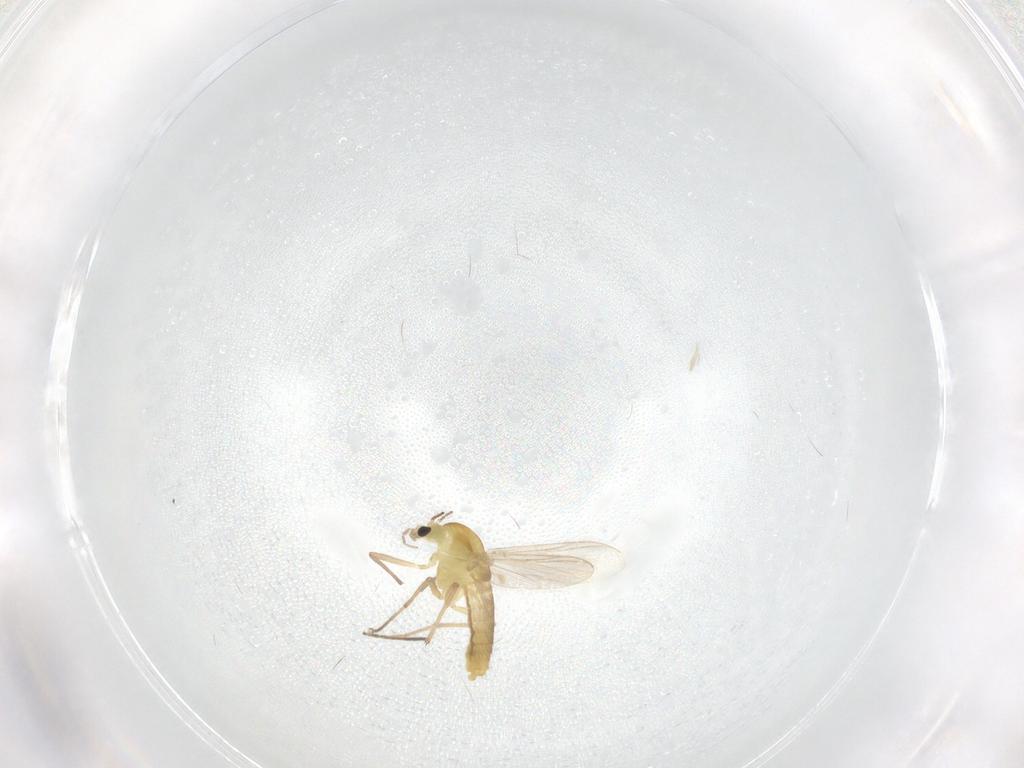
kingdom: Animalia
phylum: Arthropoda
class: Insecta
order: Diptera
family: Chironomidae
